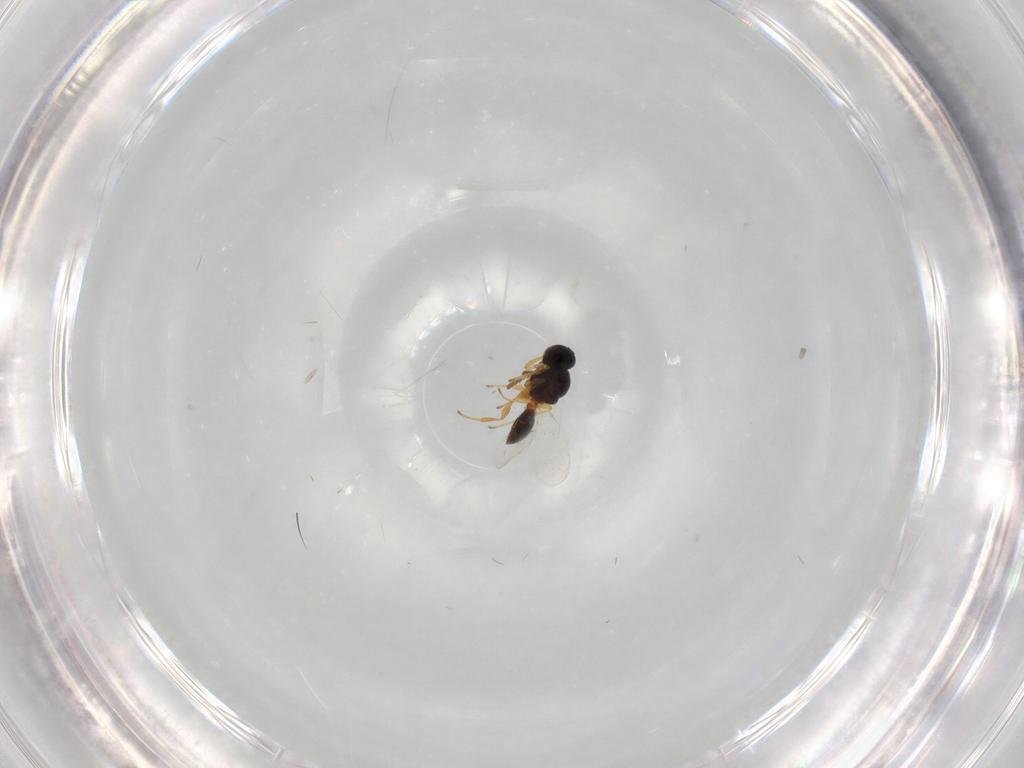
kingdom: Animalia
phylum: Arthropoda
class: Insecta
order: Hymenoptera
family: Platygastridae
